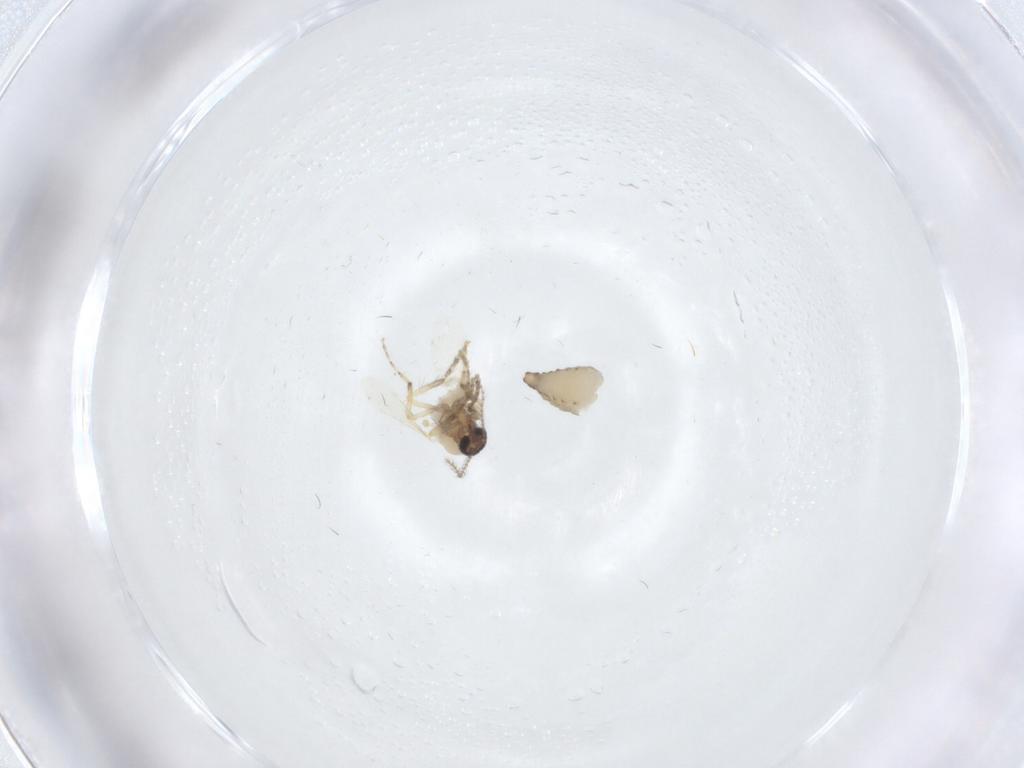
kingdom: Animalia
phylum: Arthropoda
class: Insecta
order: Diptera
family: Ceratopogonidae
